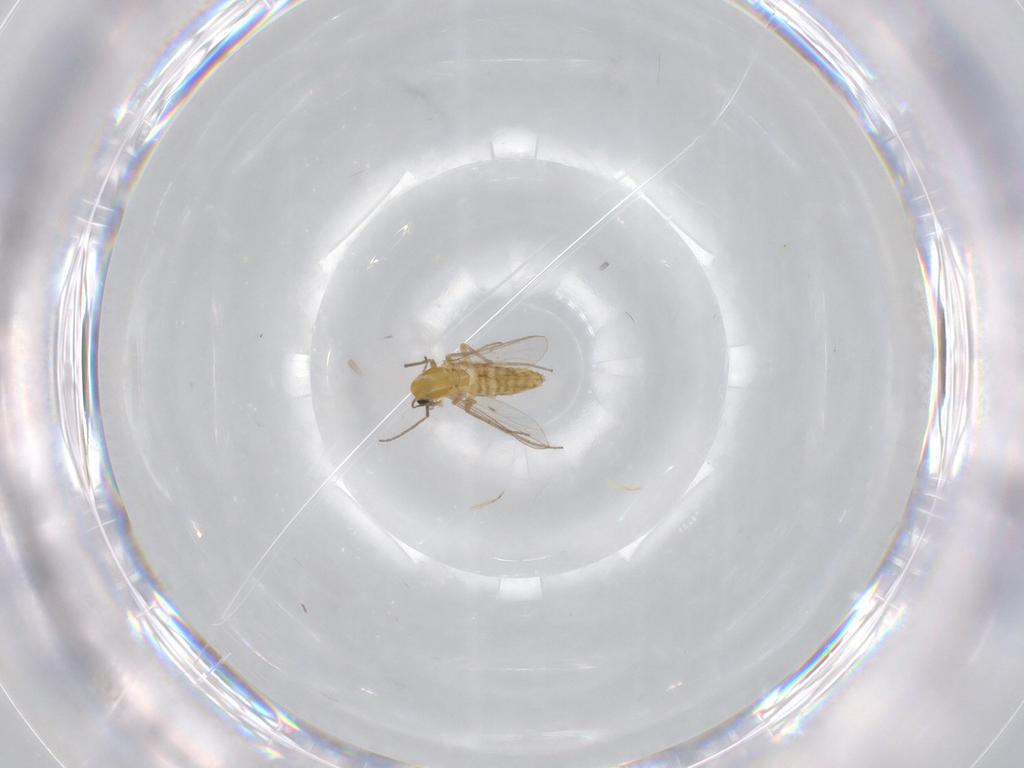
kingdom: Animalia
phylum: Arthropoda
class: Insecta
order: Diptera
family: Chironomidae
